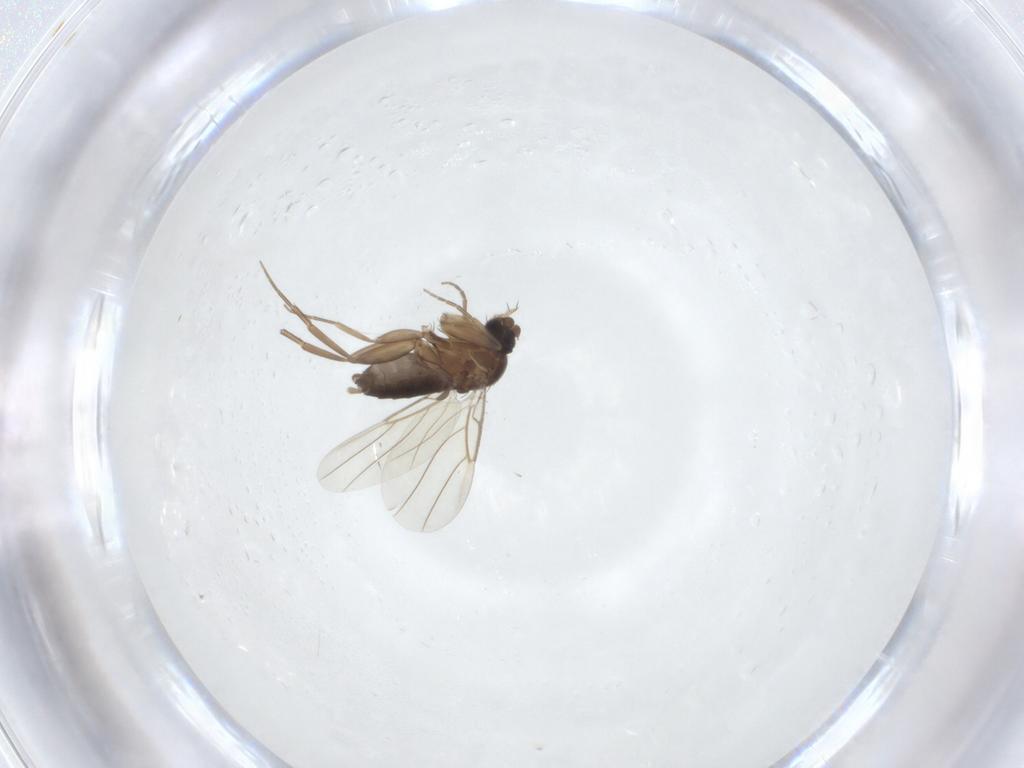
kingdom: Animalia
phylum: Arthropoda
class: Insecta
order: Diptera
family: Phoridae
